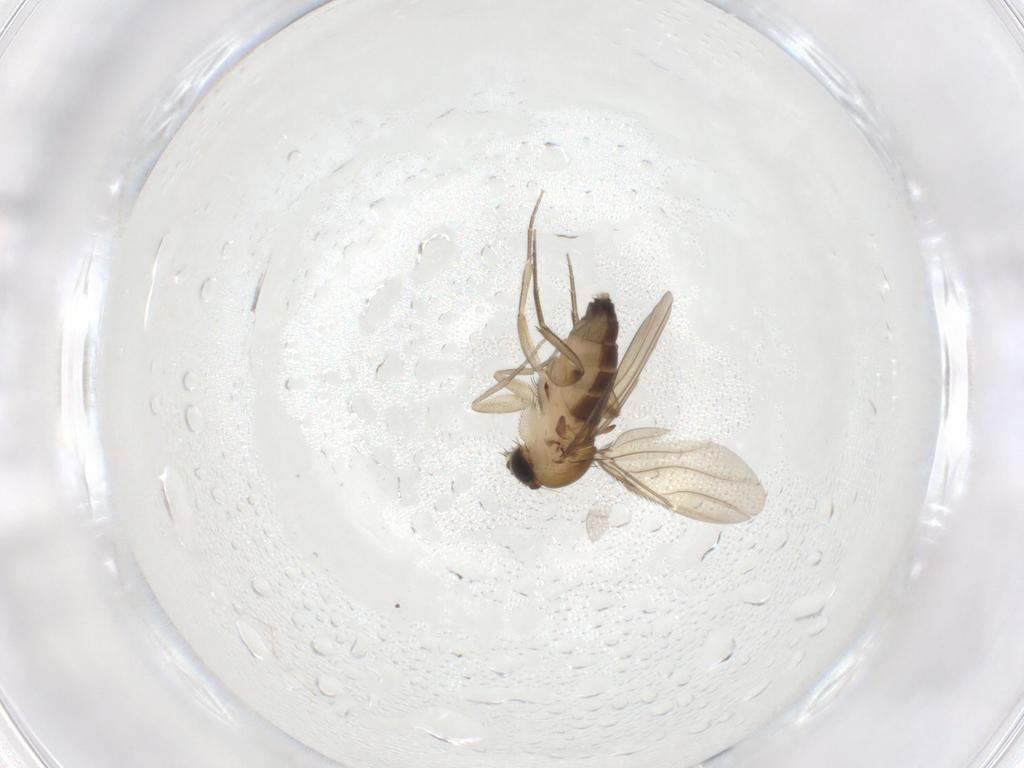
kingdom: Animalia
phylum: Arthropoda
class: Insecta
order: Diptera
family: Phoridae
